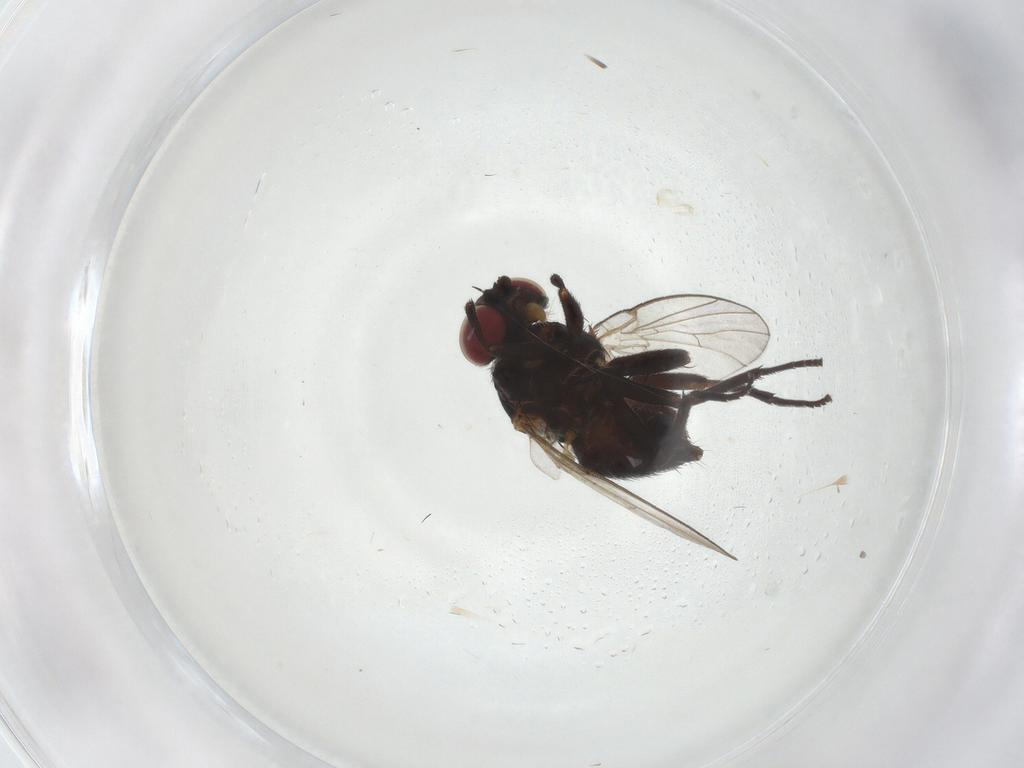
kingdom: Animalia
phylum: Arthropoda
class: Insecta
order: Diptera
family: Agromyzidae
